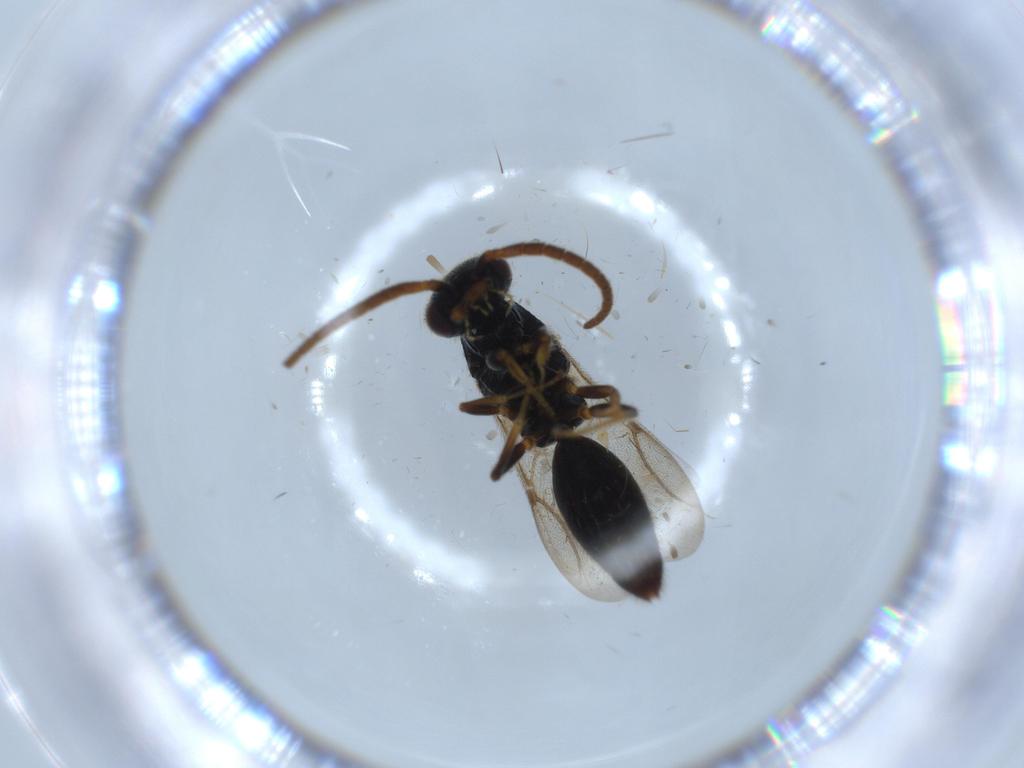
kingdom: Animalia
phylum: Arthropoda
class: Insecta
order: Hymenoptera
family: Bethylidae
